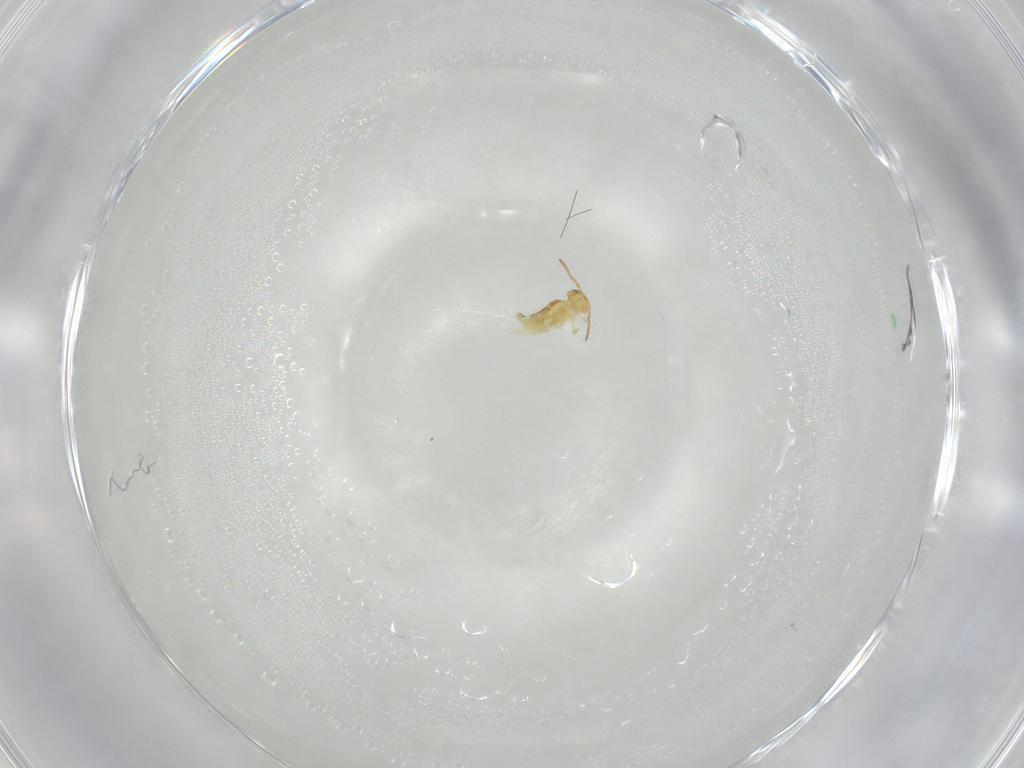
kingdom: Animalia
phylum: Arthropoda
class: Collembola
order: Symphypleona
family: Bourletiellidae
